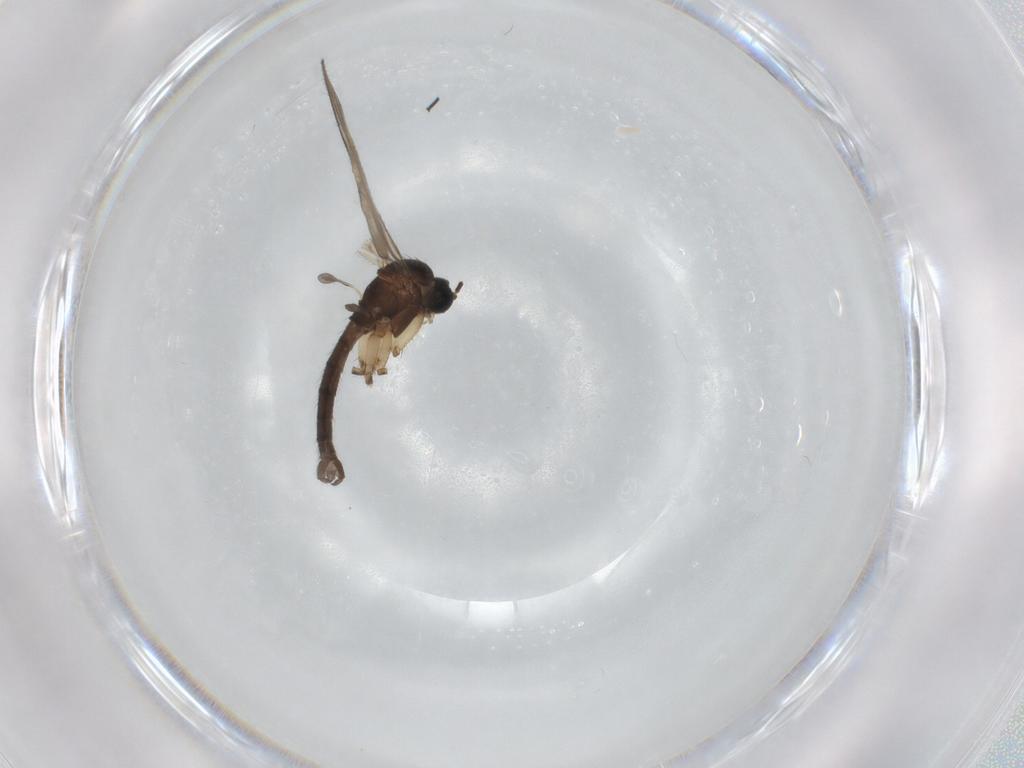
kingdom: Animalia
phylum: Arthropoda
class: Insecta
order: Diptera
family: Sciaridae
